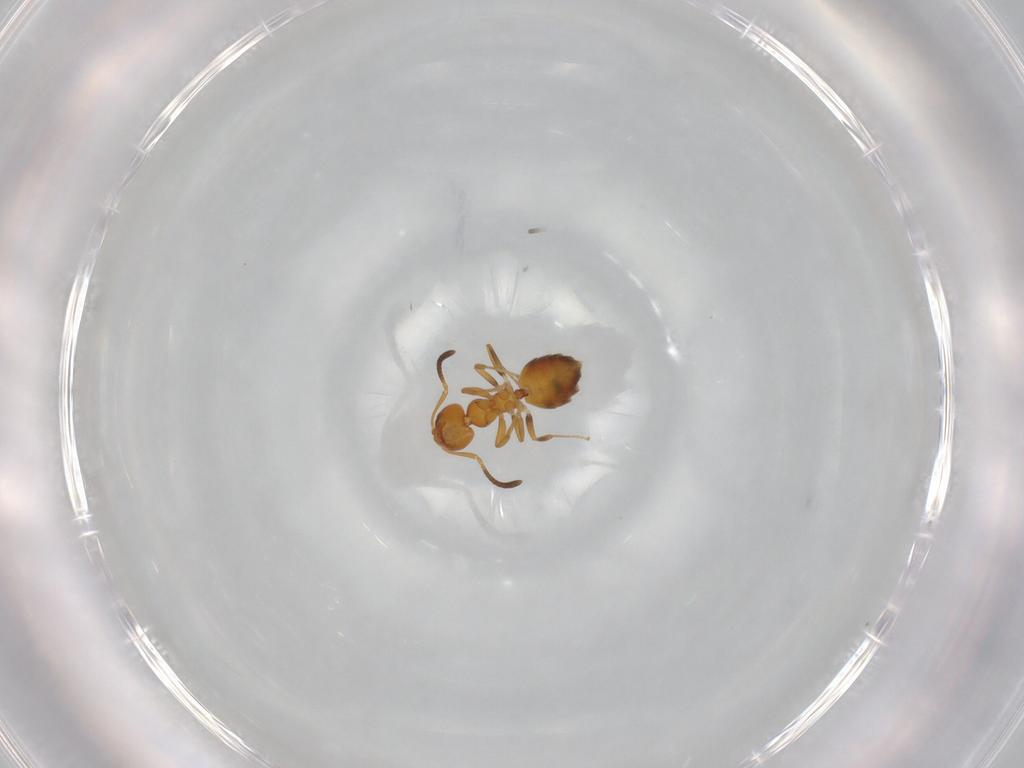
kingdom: Animalia
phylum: Arthropoda
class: Insecta
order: Hymenoptera
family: Formicidae
